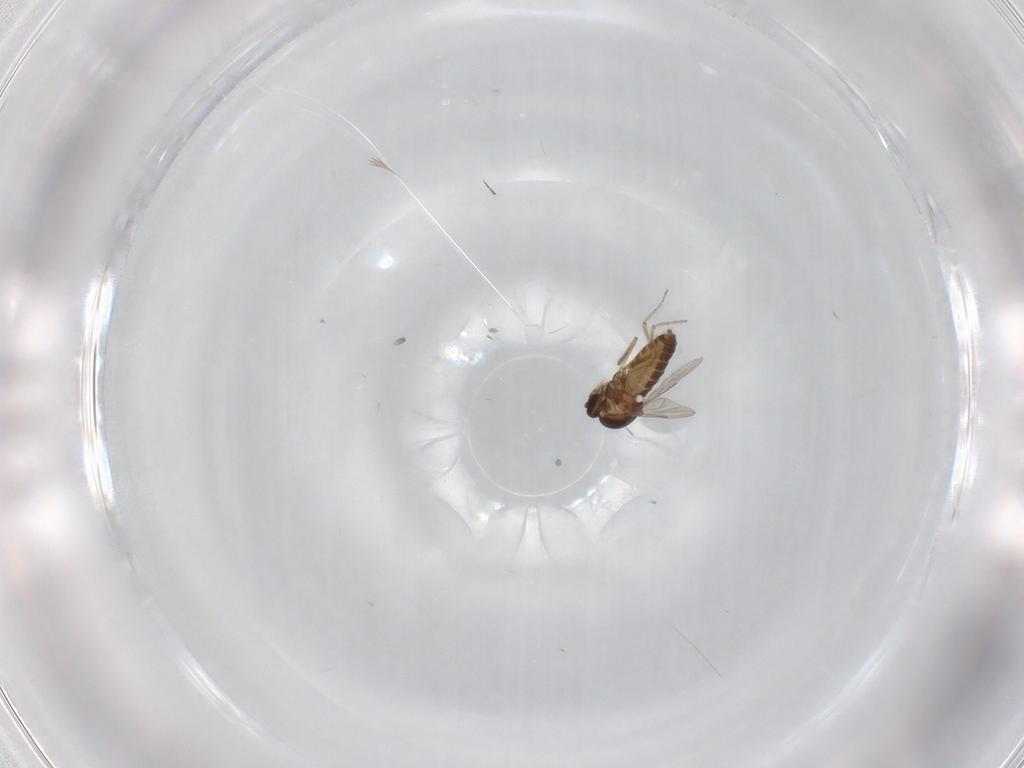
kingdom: Animalia
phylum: Arthropoda
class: Insecta
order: Diptera
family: Ceratopogonidae
